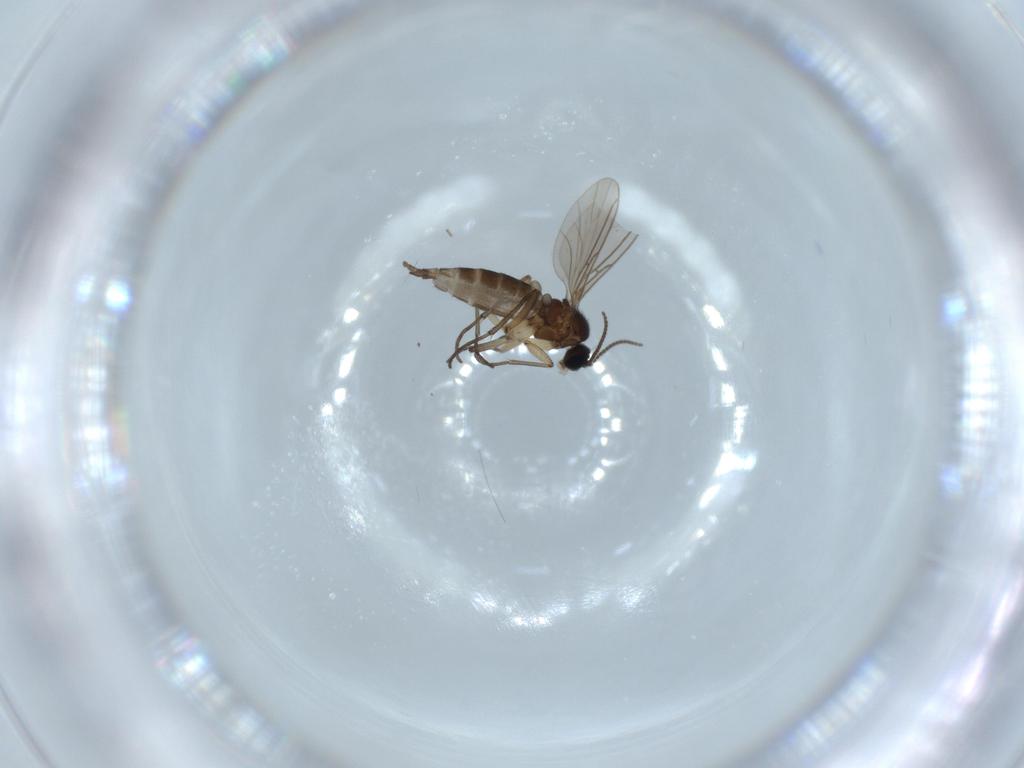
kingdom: Animalia
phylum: Arthropoda
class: Insecta
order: Diptera
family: Sciaridae
